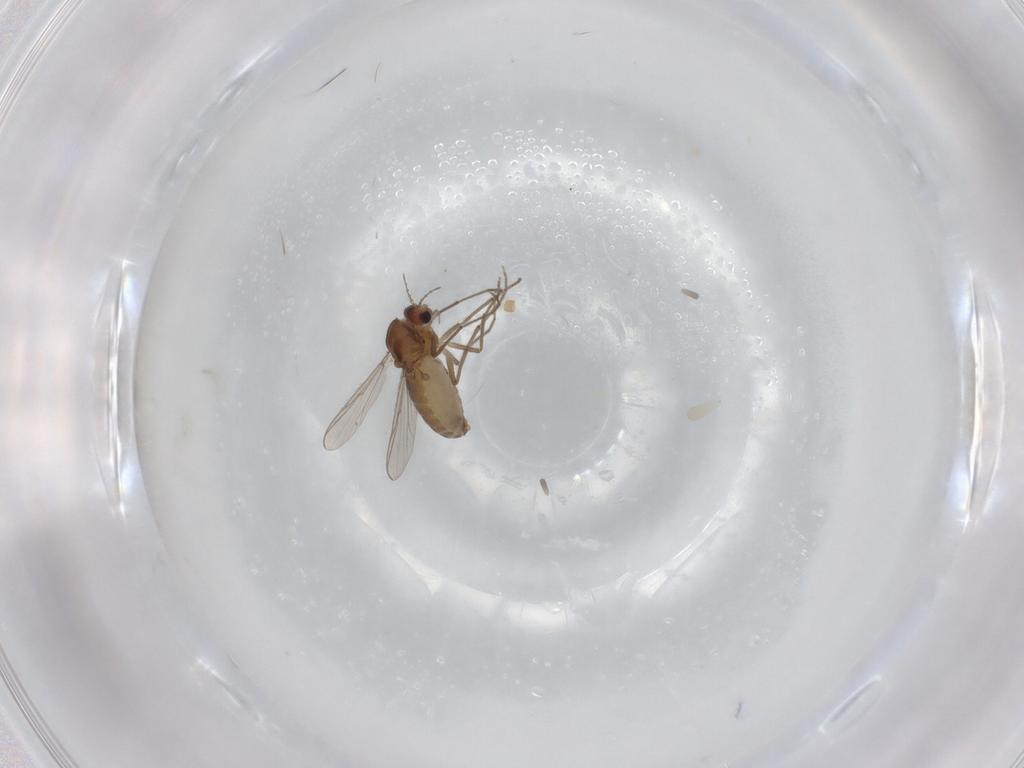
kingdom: Animalia
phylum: Arthropoda
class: Insecta
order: Diptera
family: Chironomidae
